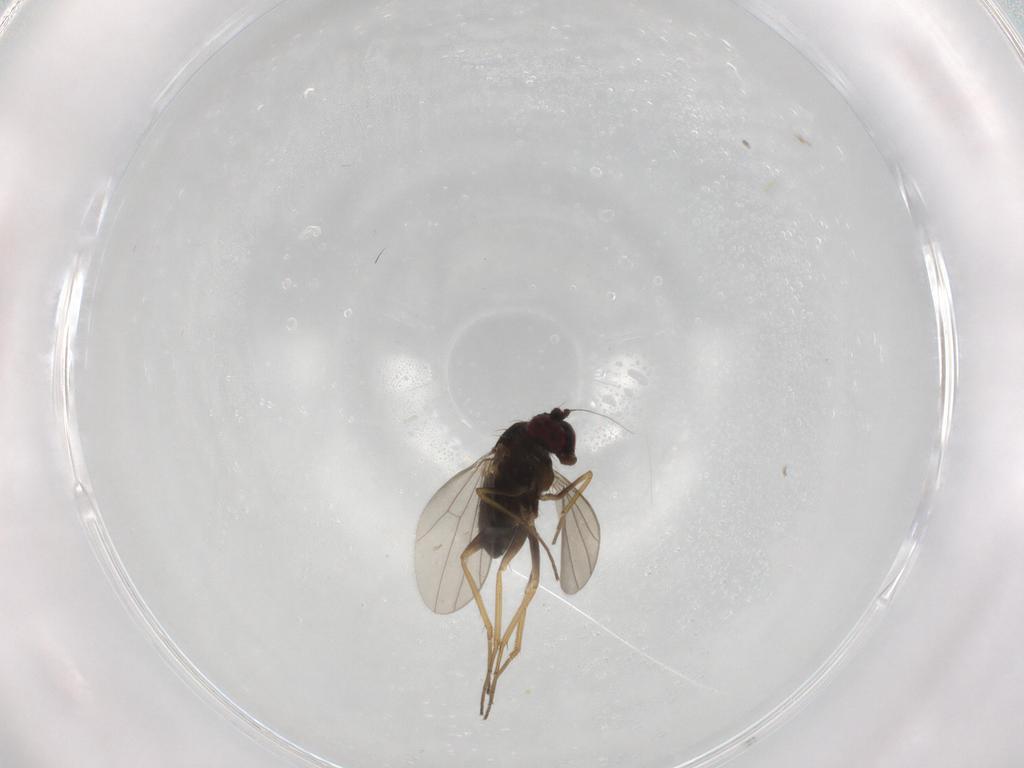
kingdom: Animalia
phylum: Arthropoda
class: Insecta
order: Diptera
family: Dolichopodidae
